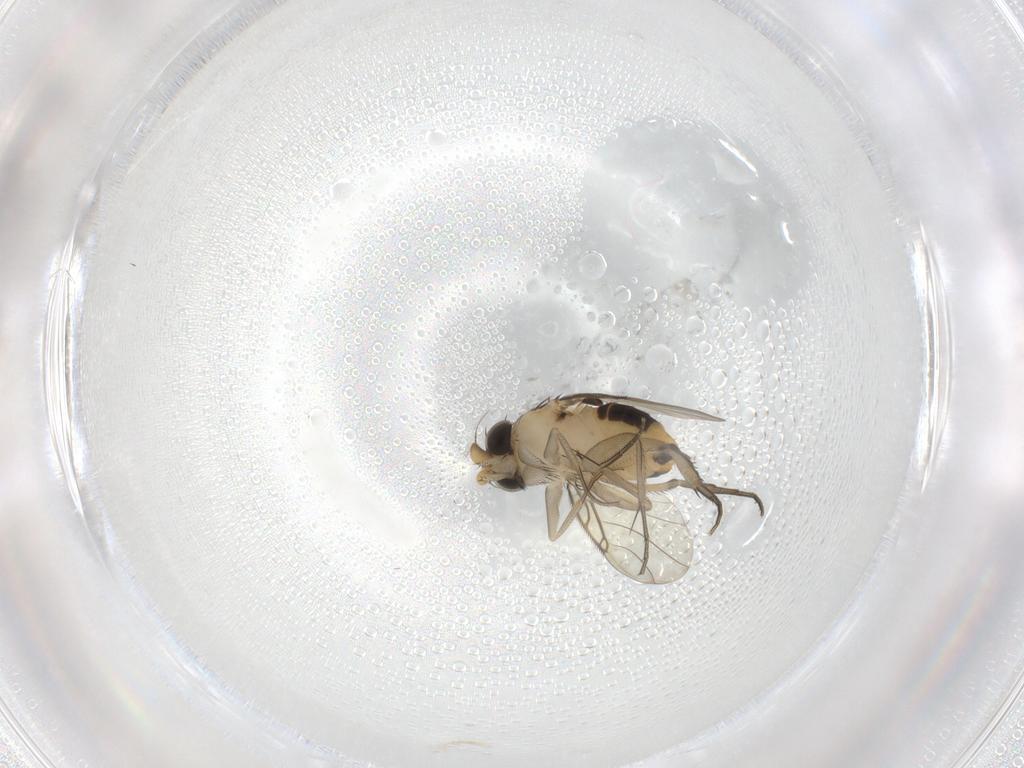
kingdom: Animalia
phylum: Arthropoda
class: Insecta
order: Diptera
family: Phoridae
